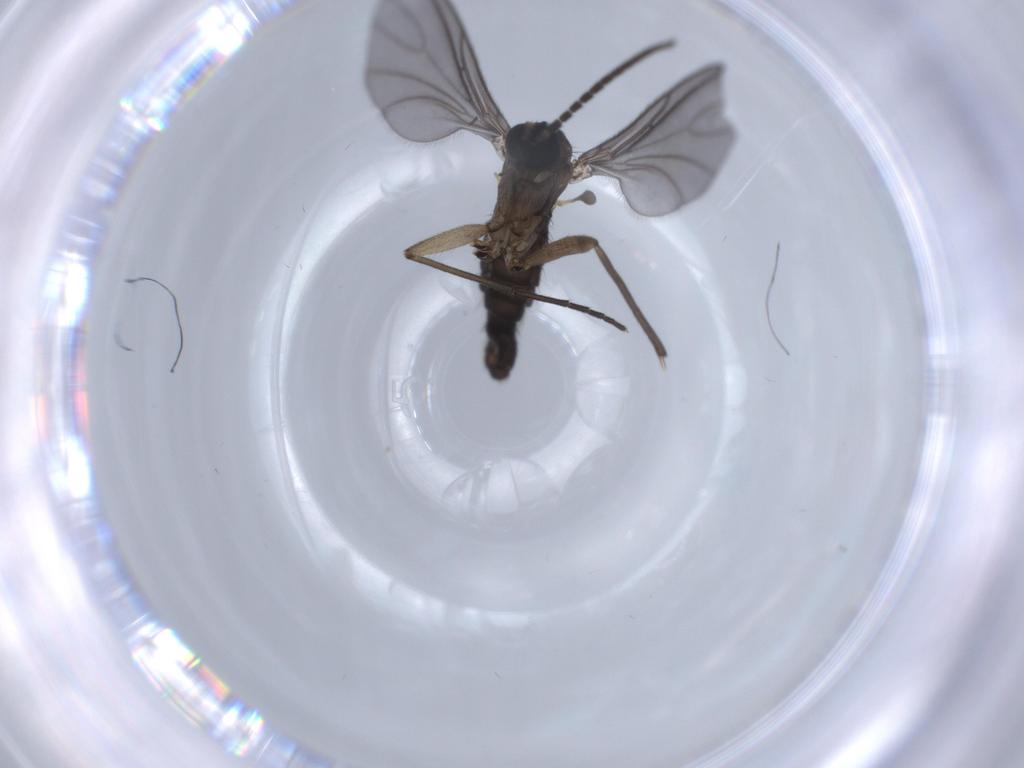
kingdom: Animalia
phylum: Arthropoda
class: Insecta
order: Diptera
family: Sciaridae
